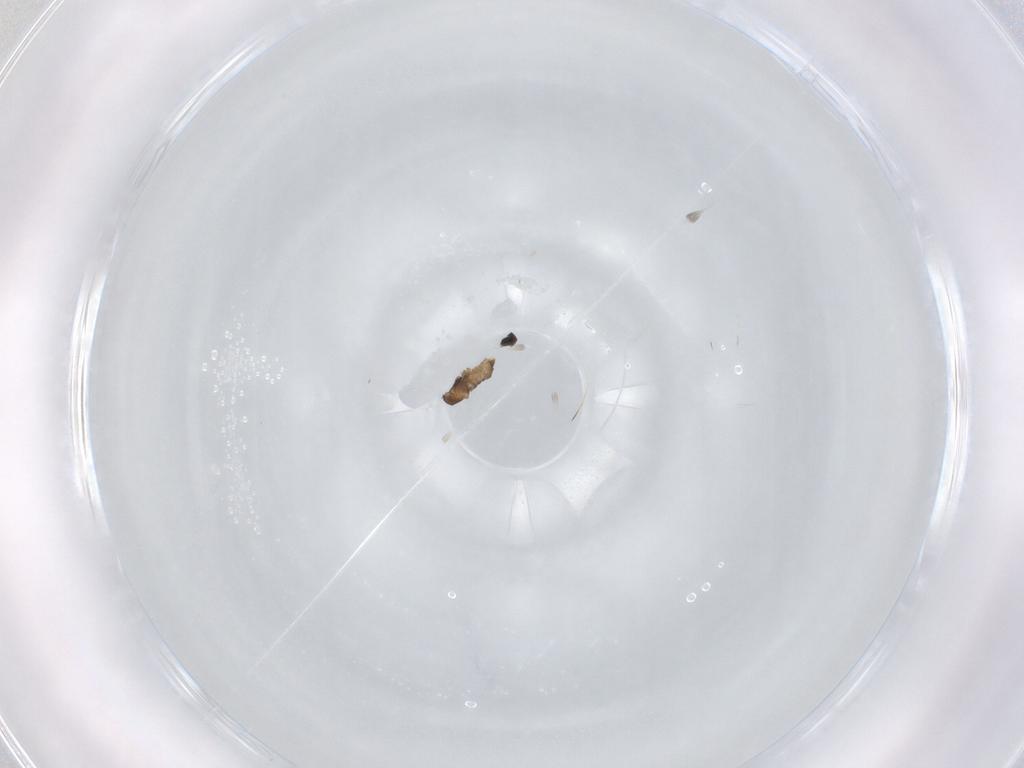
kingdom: Animalia
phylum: Arthropoda
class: Insecta
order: Diptera
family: Cecidomyiidae
